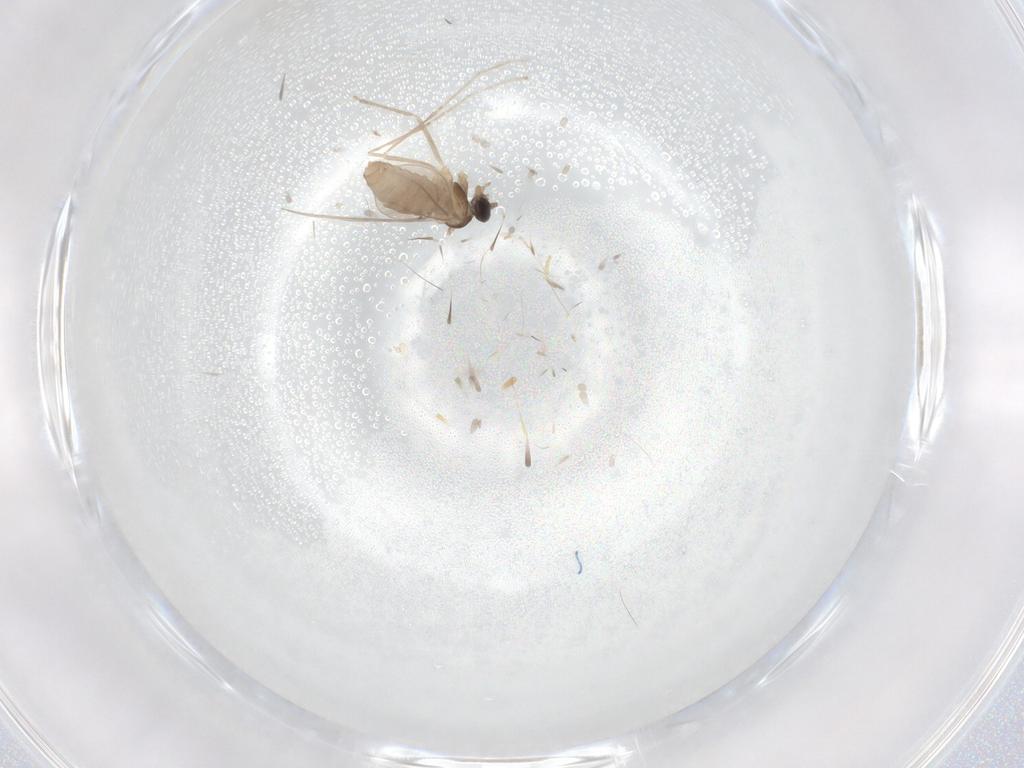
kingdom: Animalia
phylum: Arthropoda
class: Insecta
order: Diptera
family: Cecidomyiidae
